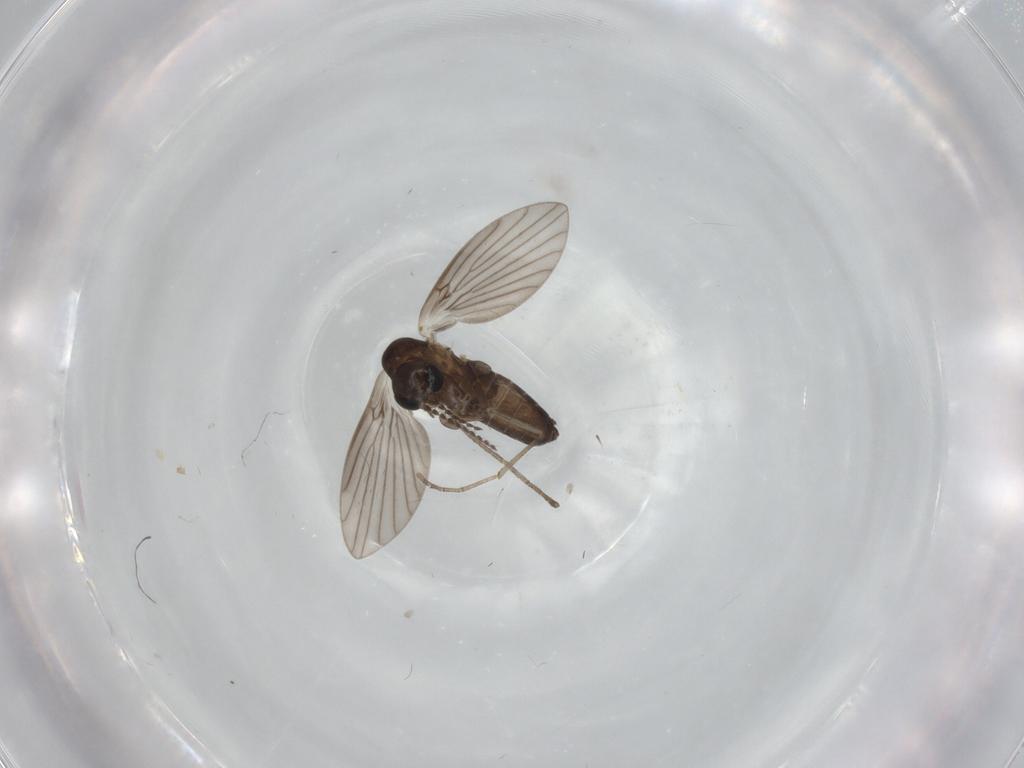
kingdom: Animalia
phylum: Arthropoda
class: Insecta
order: Diptera
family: Chironomidae
